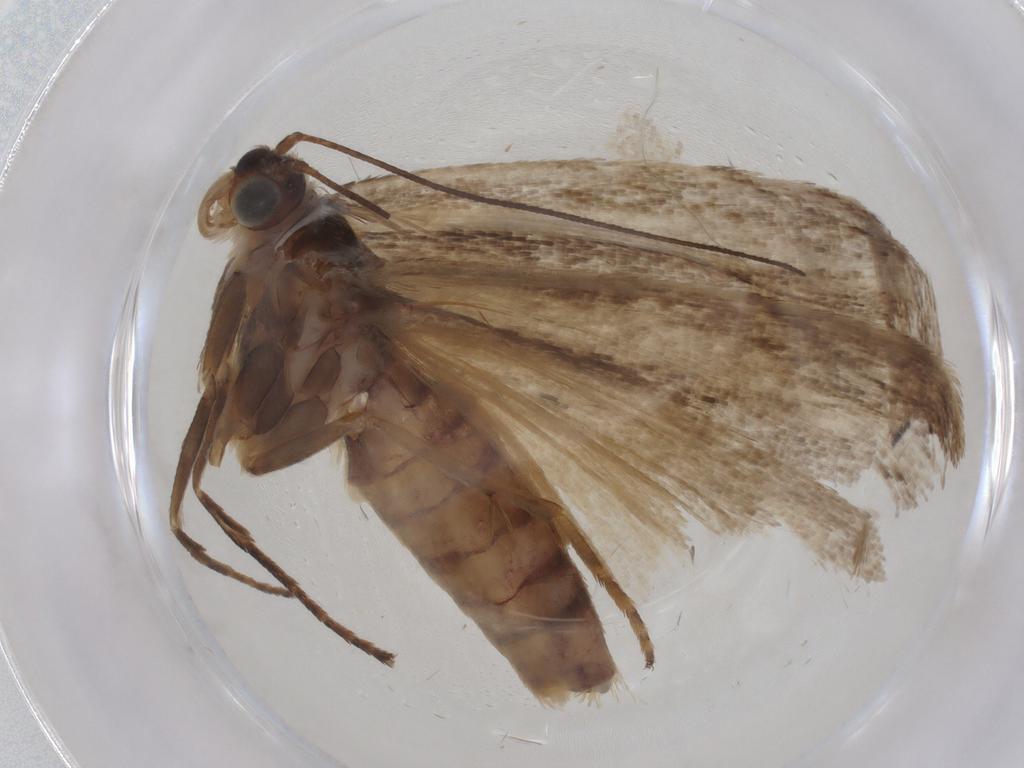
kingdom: Animalia
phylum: Arthropoda
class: Insecta
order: Lepidoptera
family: Crambidae
